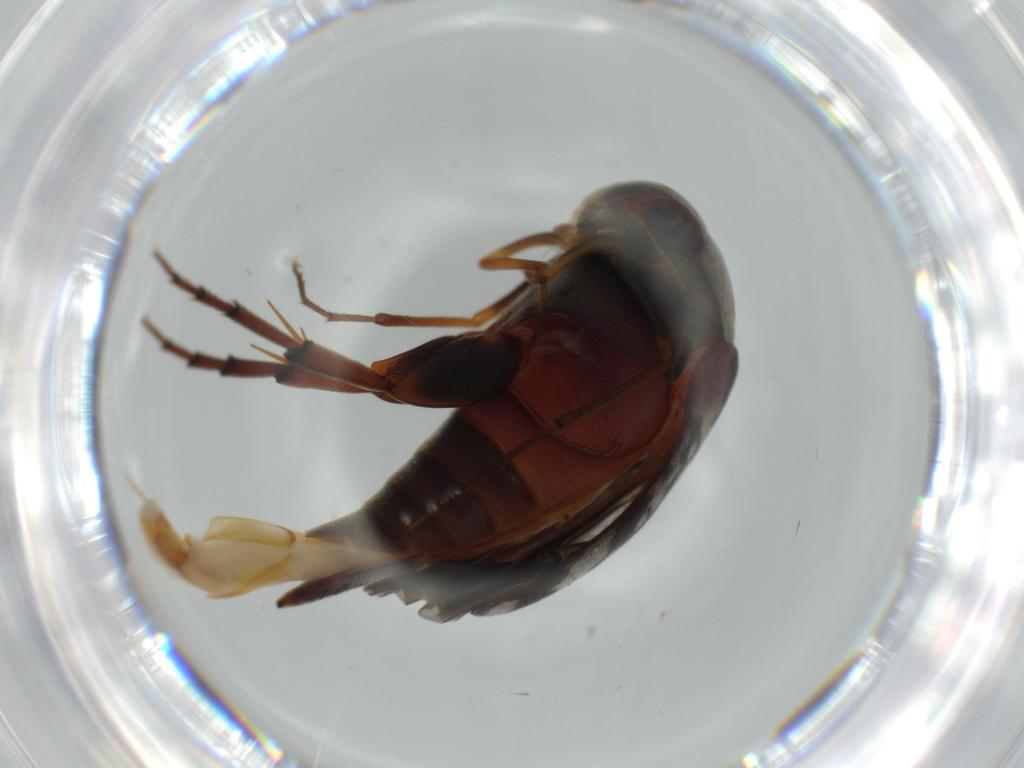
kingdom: Animalia
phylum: Arthropoda
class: Insecta
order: Coleoptera
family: Mordellidae
